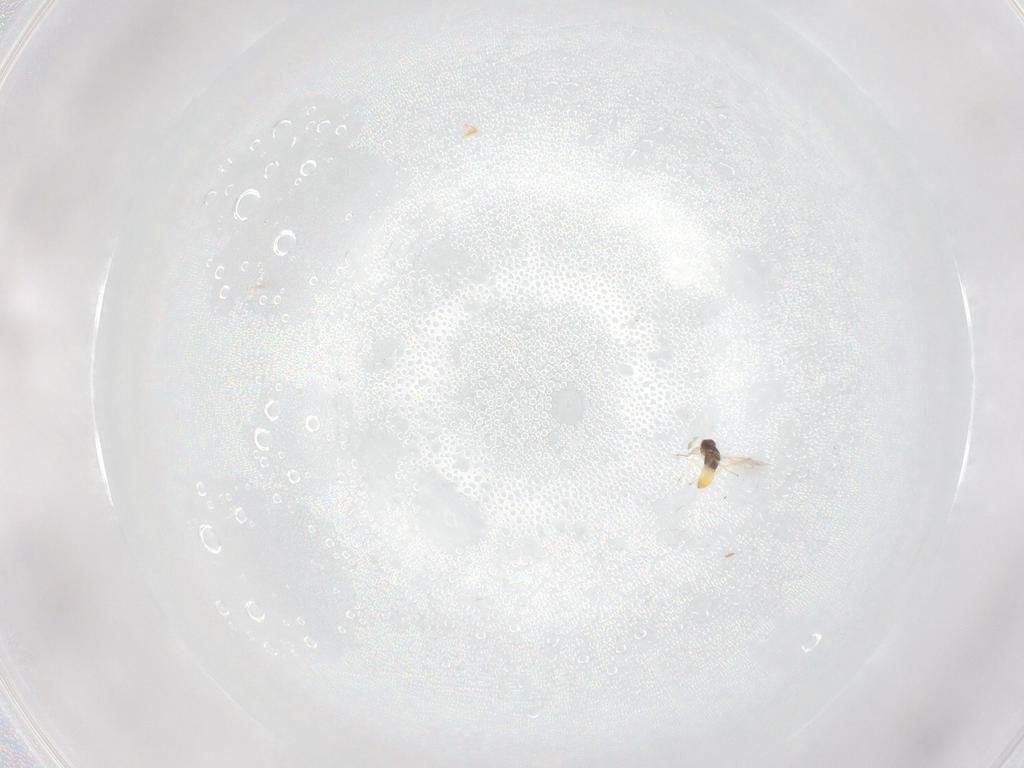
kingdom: Animalia
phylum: Arthropoda
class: Insecta
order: Hymenoptera
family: Eulophidae
